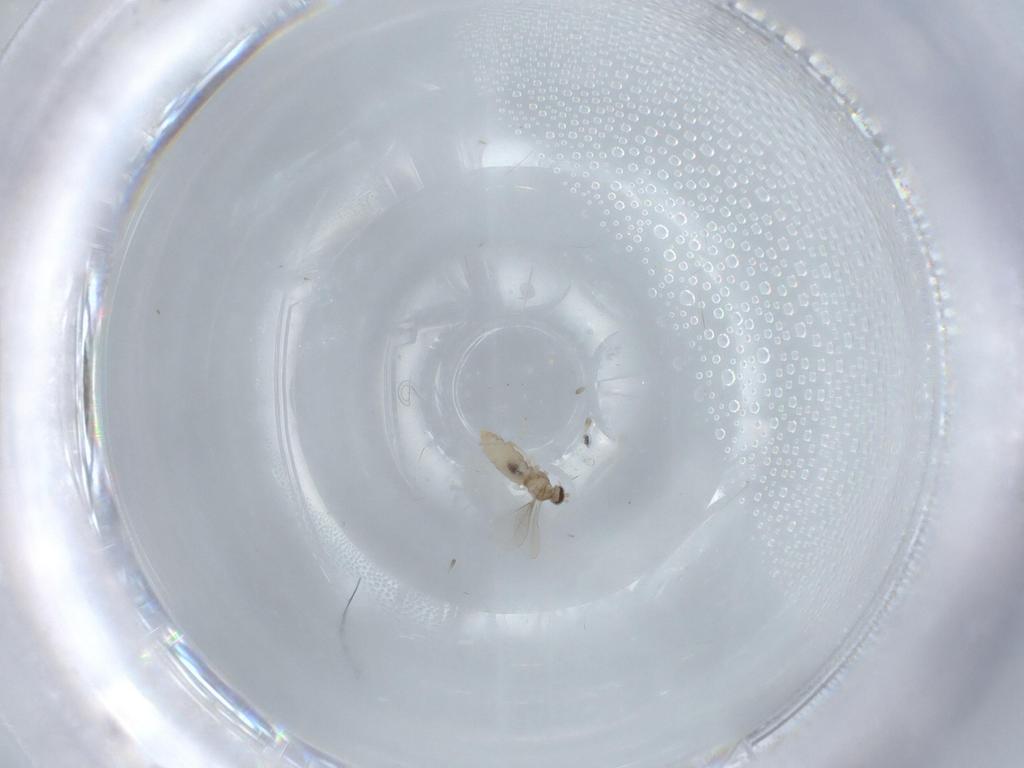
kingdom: Animalia
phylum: Arthropoda
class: Insecta
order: Diptera
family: Cecidomyiidae
